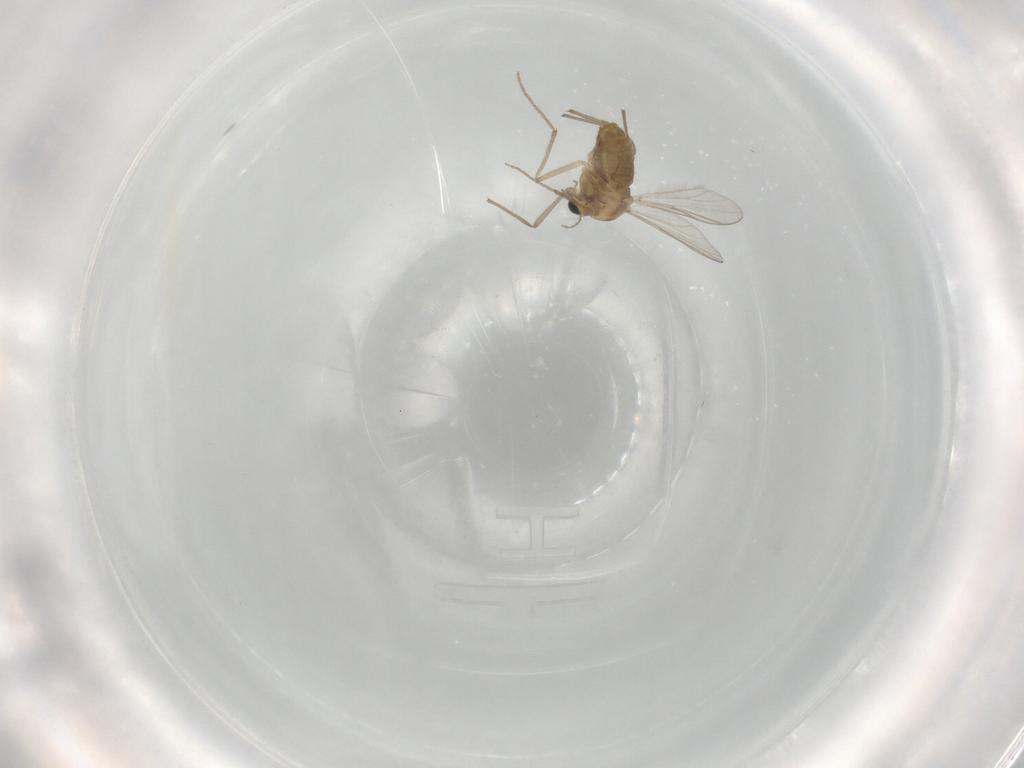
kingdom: Animalia
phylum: Arthropoda
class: Insecta
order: Diptera
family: Chironomidae
